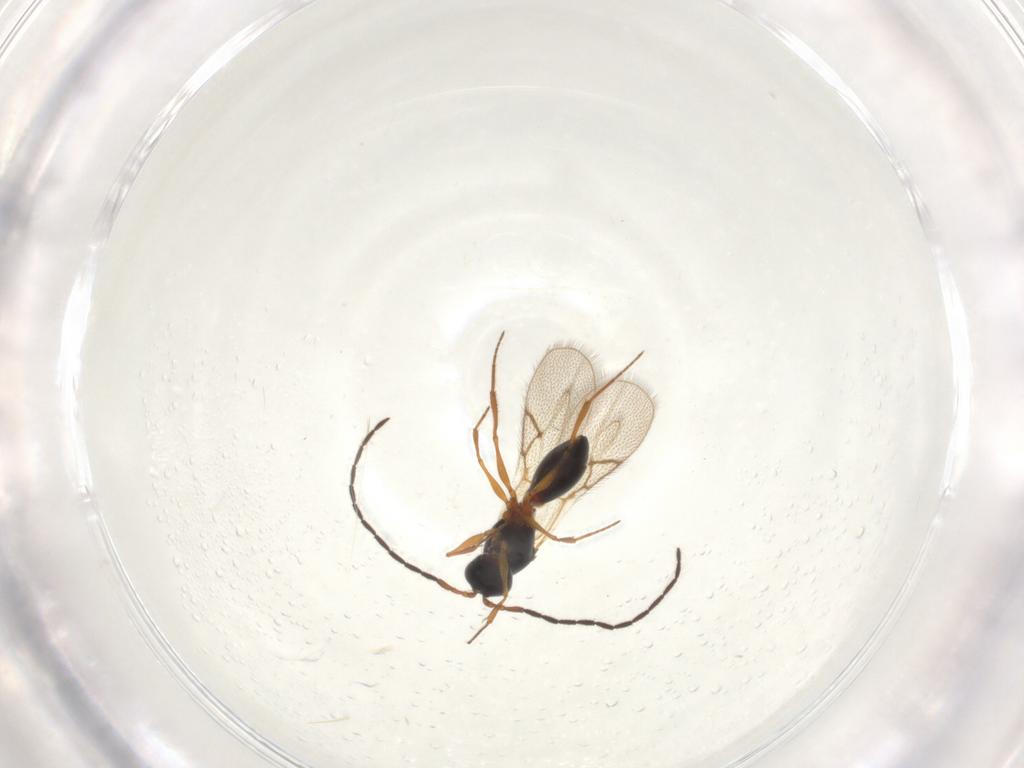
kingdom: Animalia
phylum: Arthropoda
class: Insecta
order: Hymenoptera
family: Figitidae
